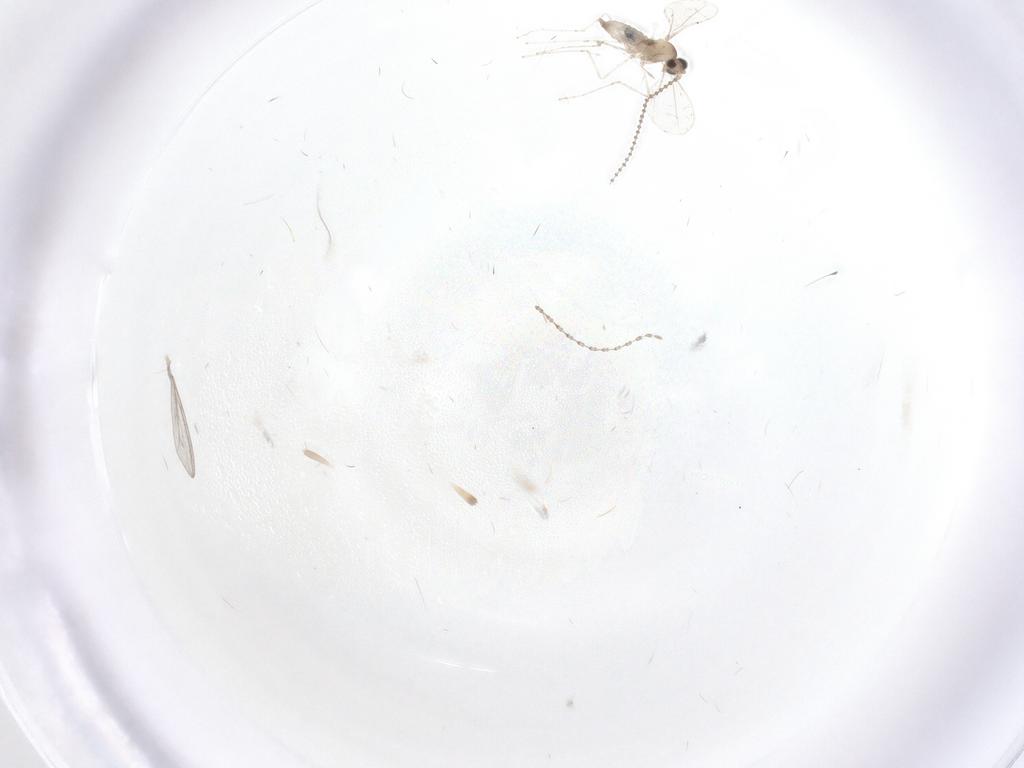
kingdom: Animalia
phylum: Arthropoda
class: Insecta
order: Diptera
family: Cecidomyiidae
